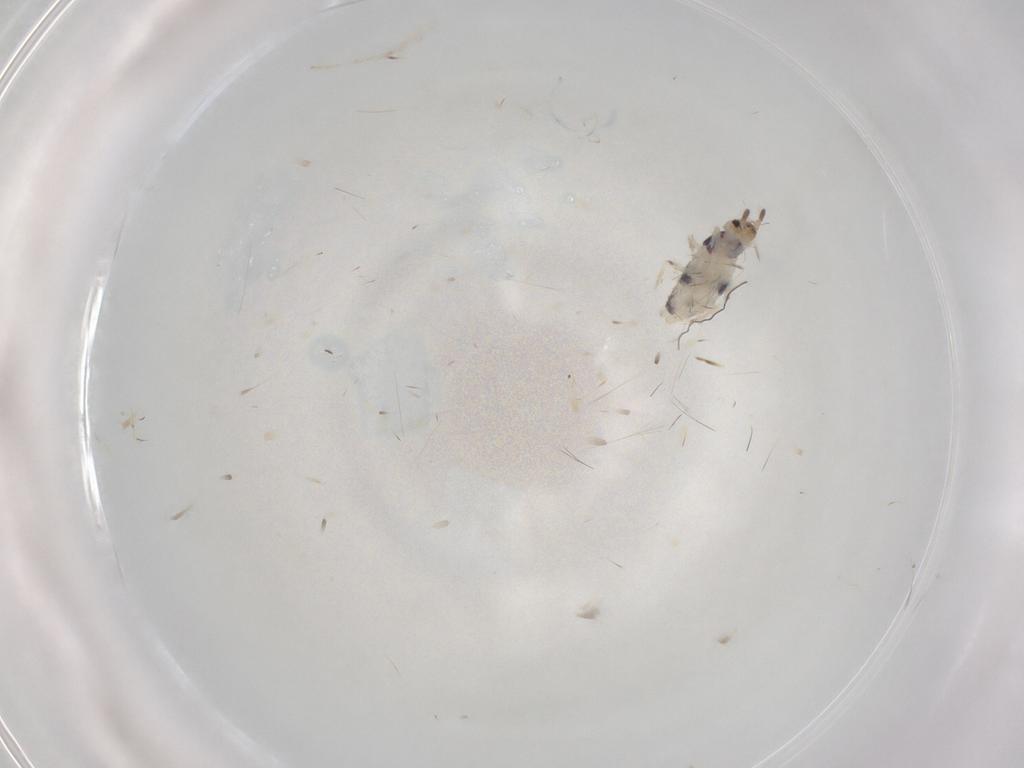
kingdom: Animalia
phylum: Arthropoda
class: Collembola
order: Entomobryomorpha
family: Entomobryidae
